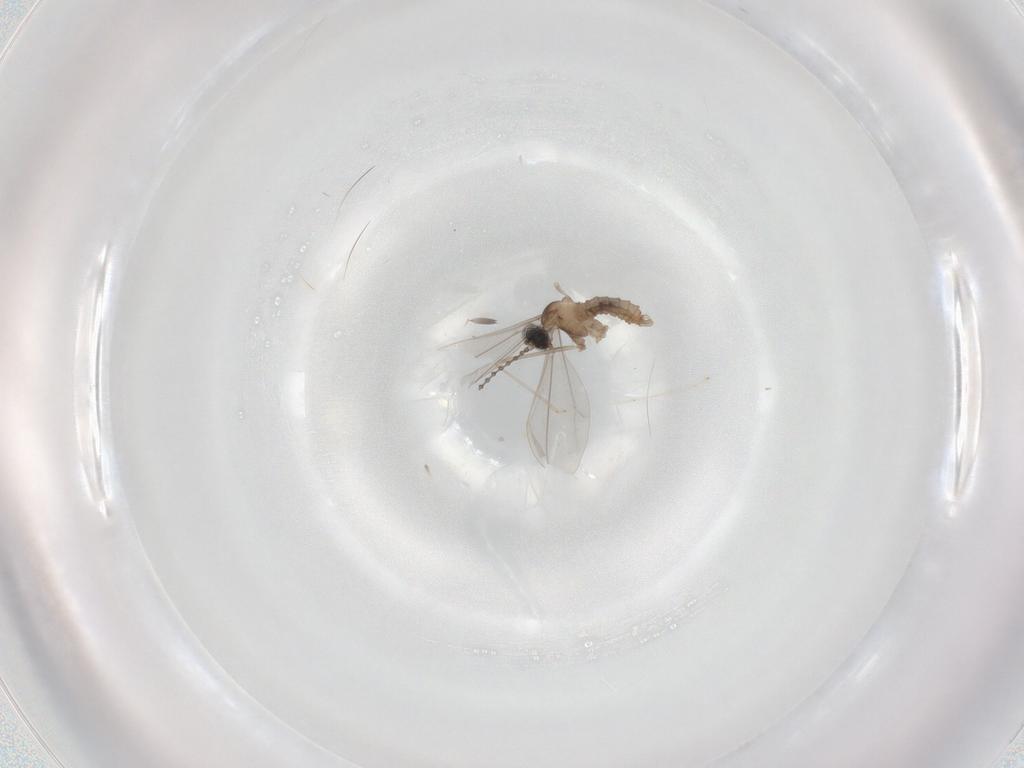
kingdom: Animalia
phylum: Arthropoda
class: Insecta
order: Diptera
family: Cecidomyiidae
